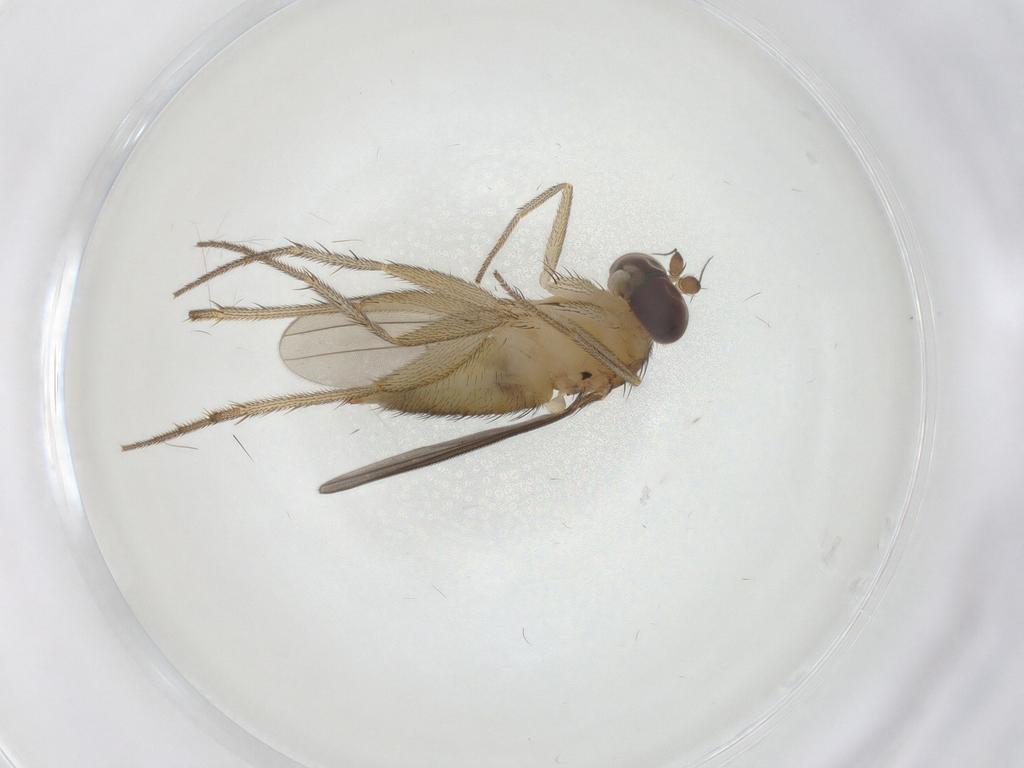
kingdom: Animalia
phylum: Arthropoda
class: Insecta
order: Diptera
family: Dolichopodidae
